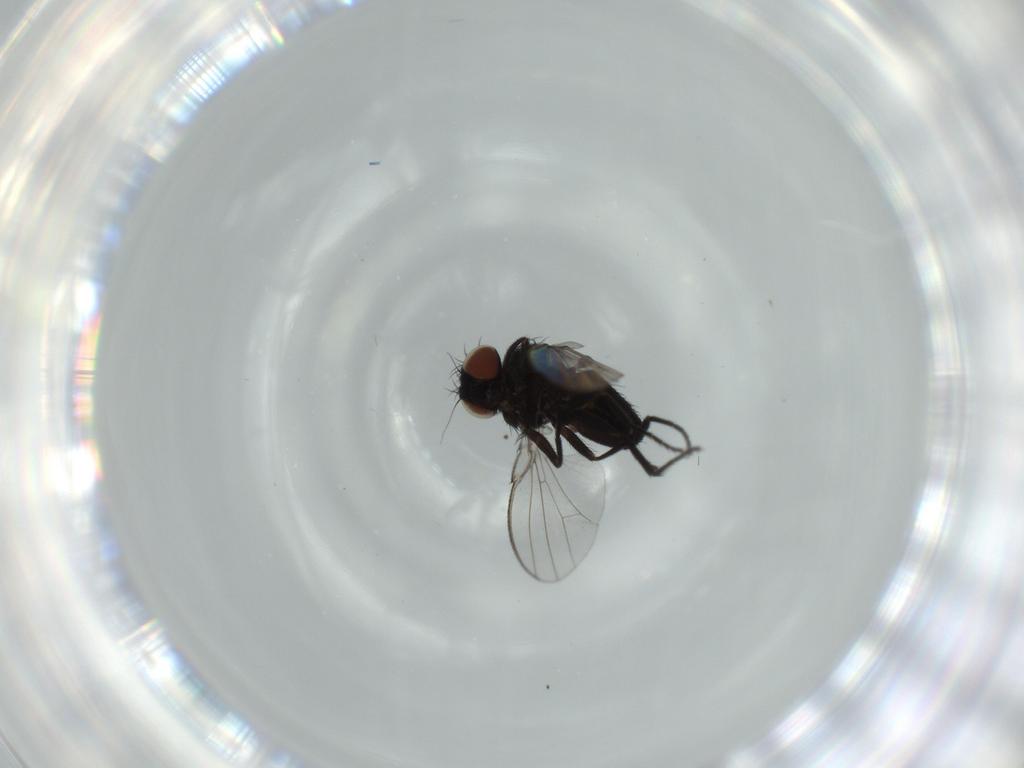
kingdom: Animalia
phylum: Arthropoda
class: Insecta
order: Diptera
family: Milichiidae
